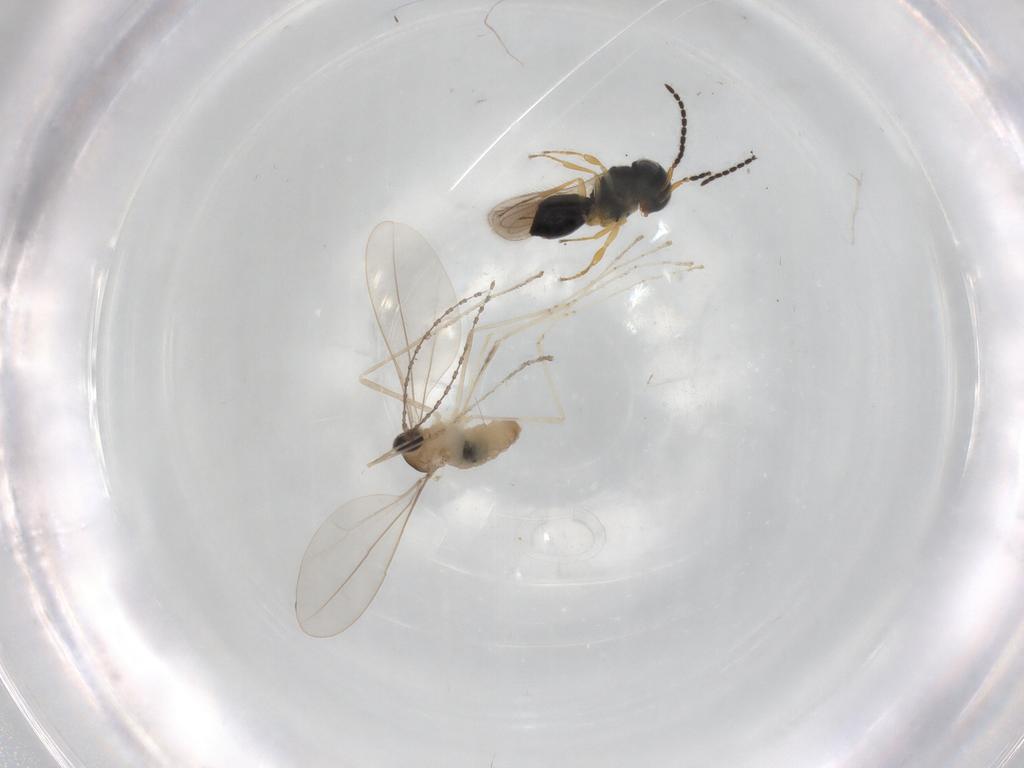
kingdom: Animalia
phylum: Arthropoda
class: Insecta
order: Diptera
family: Cecidomyiidae
